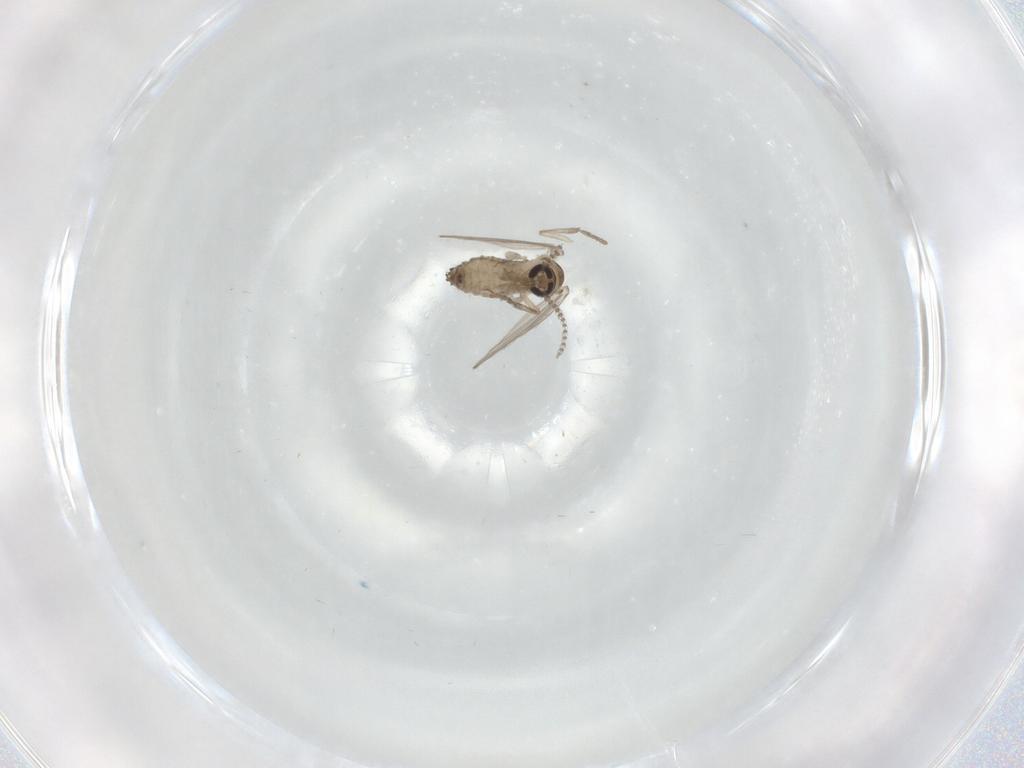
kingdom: Animalia
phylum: Arthropoda
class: Insecta
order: Diptera
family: Psychodidae
